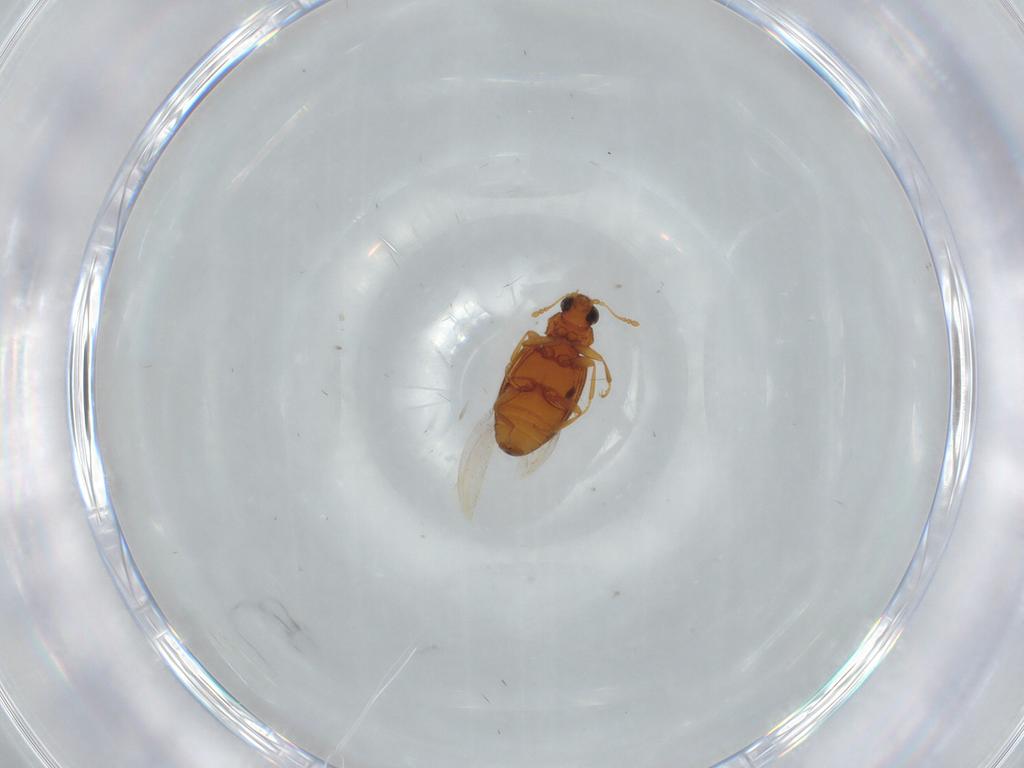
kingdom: Animalia
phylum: Arthropoda
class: Insecta
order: Coleoptera
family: Latridiidae
